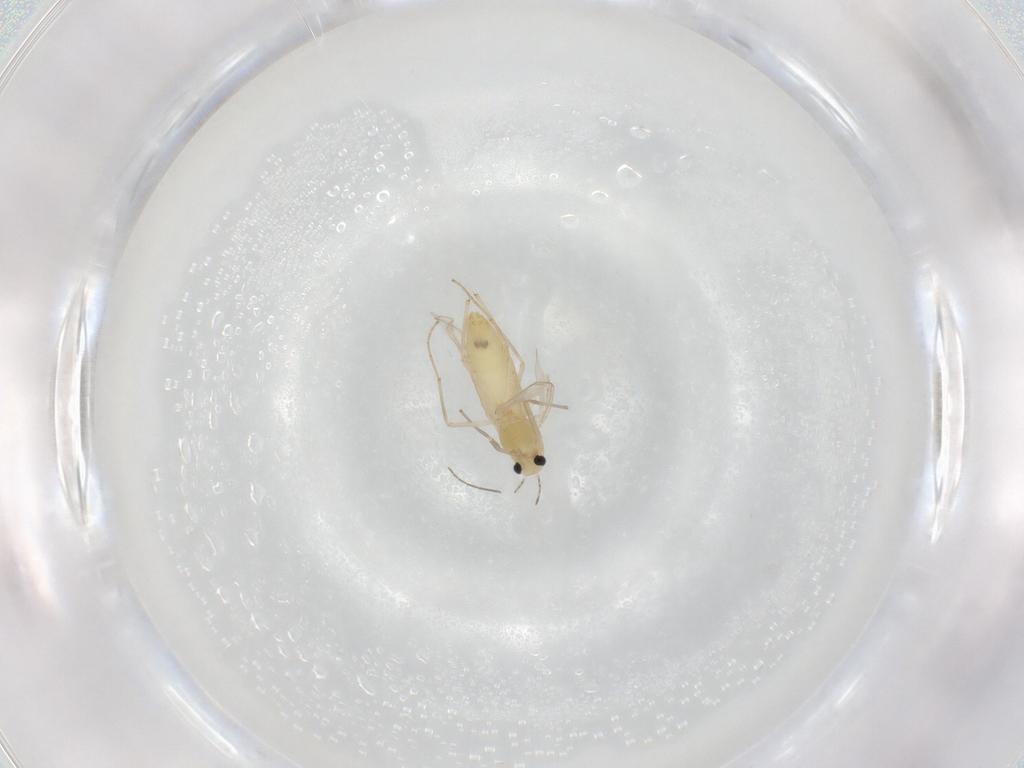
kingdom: Animalia
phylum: Arthropoda
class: Insecta
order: Diptera
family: Chironomidae
